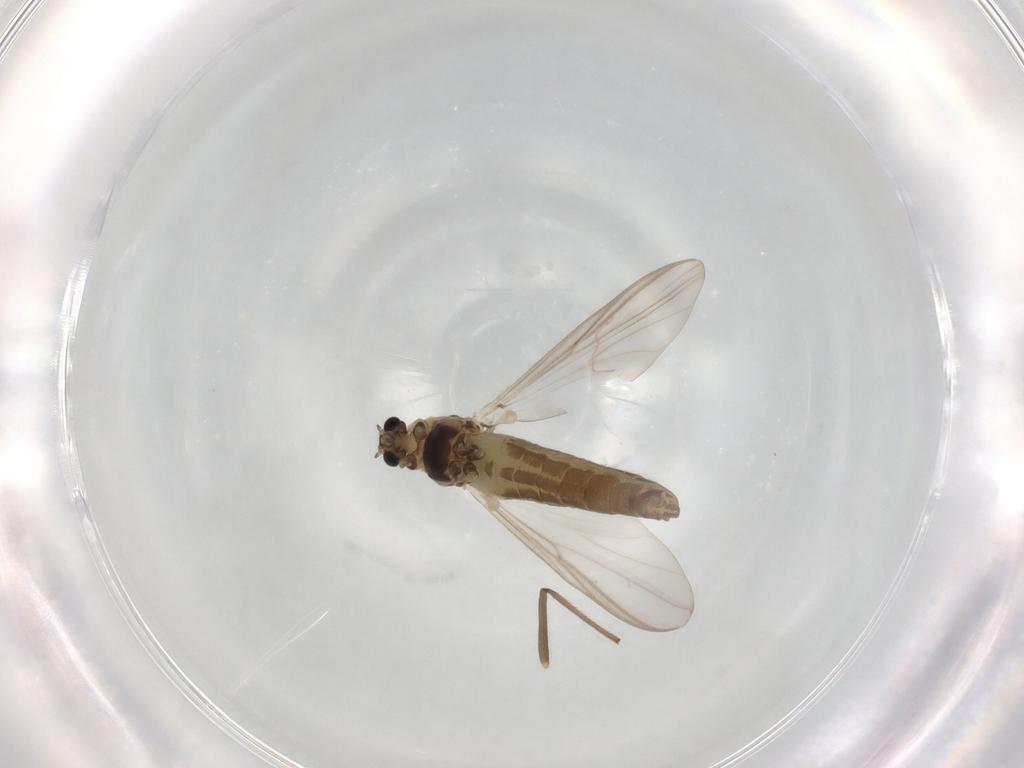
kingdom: Animalia
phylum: Arthropoda
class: Insecta
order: Diptera
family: Chironomidae
